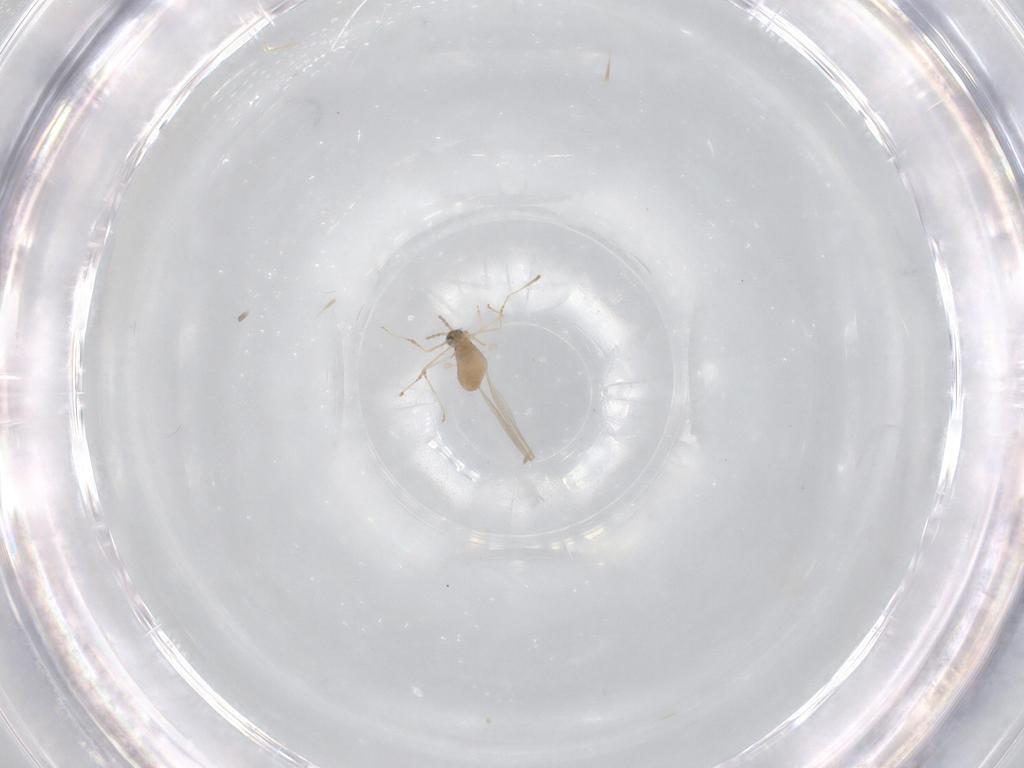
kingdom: Animalia
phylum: Arthropoda
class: Insecta
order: Diptera
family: Cecidomyiidae
